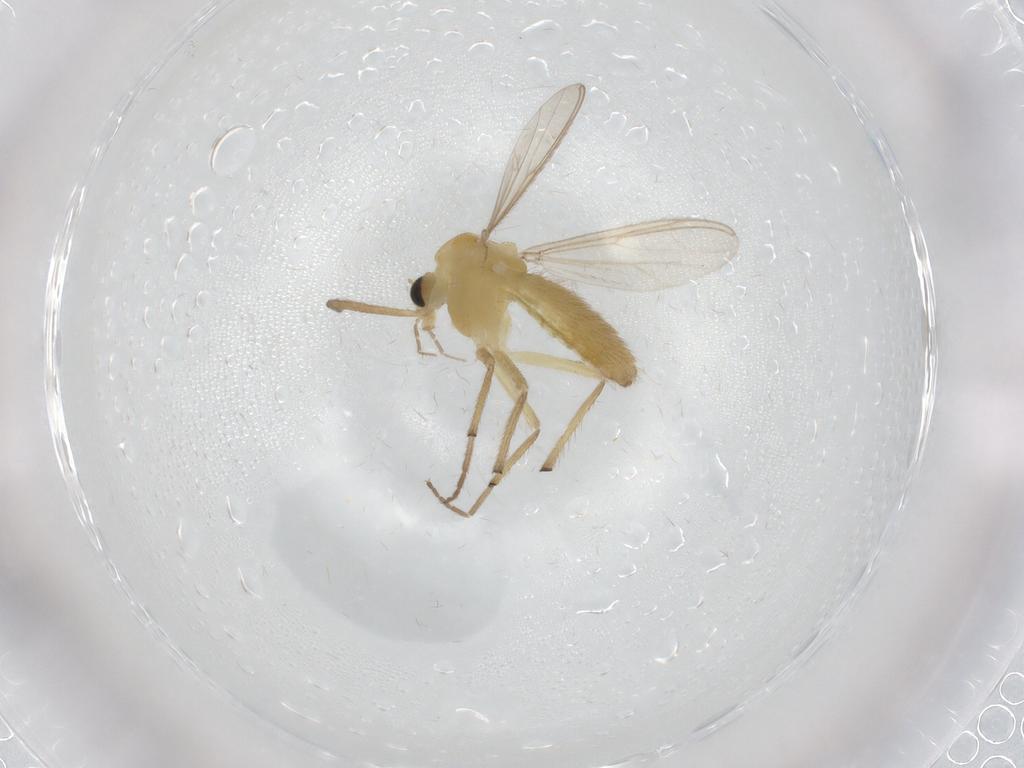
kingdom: Animalia
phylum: Arthropoda
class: Insecta
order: Diptera
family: Chironomidae
